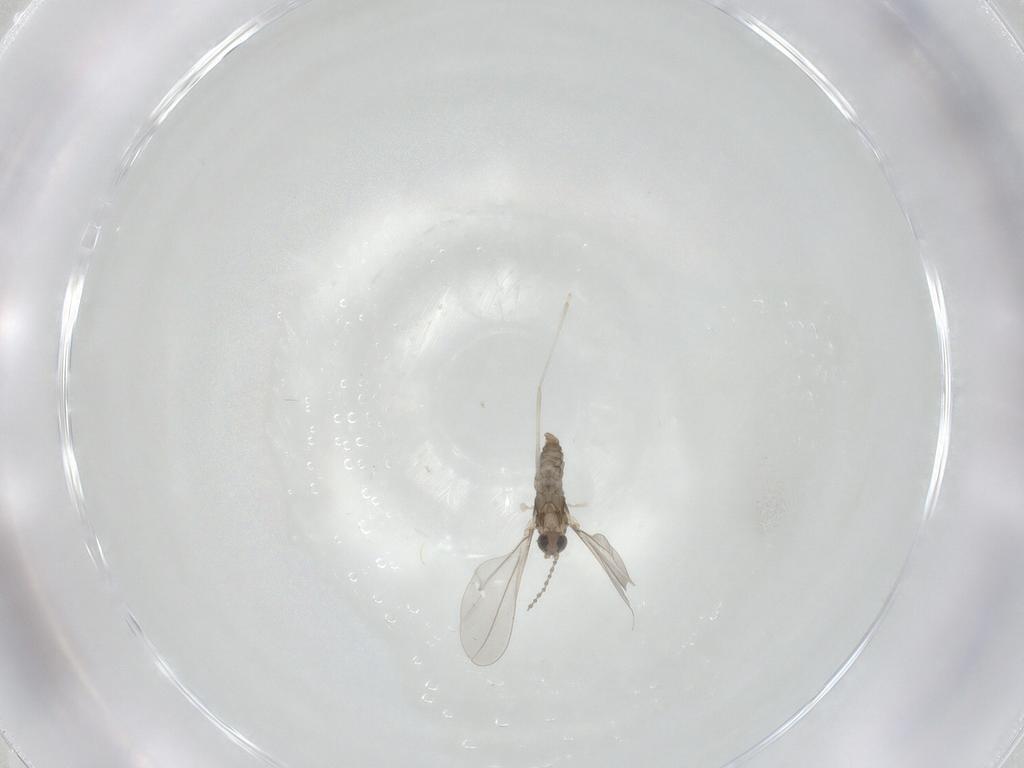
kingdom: Animalia
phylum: Arthropoda
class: Insecta
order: Diptera
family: Cecidomyiidae
